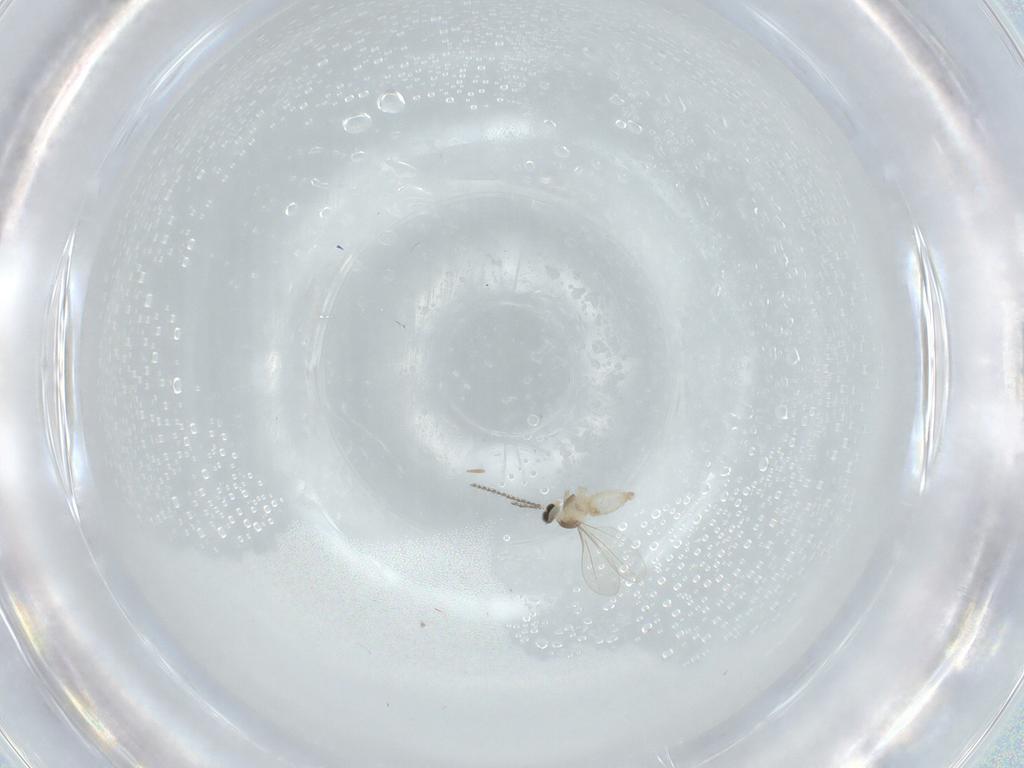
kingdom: Animalia
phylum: Arthropoda
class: Insecta
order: Diptera
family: Cecidomyiidae
